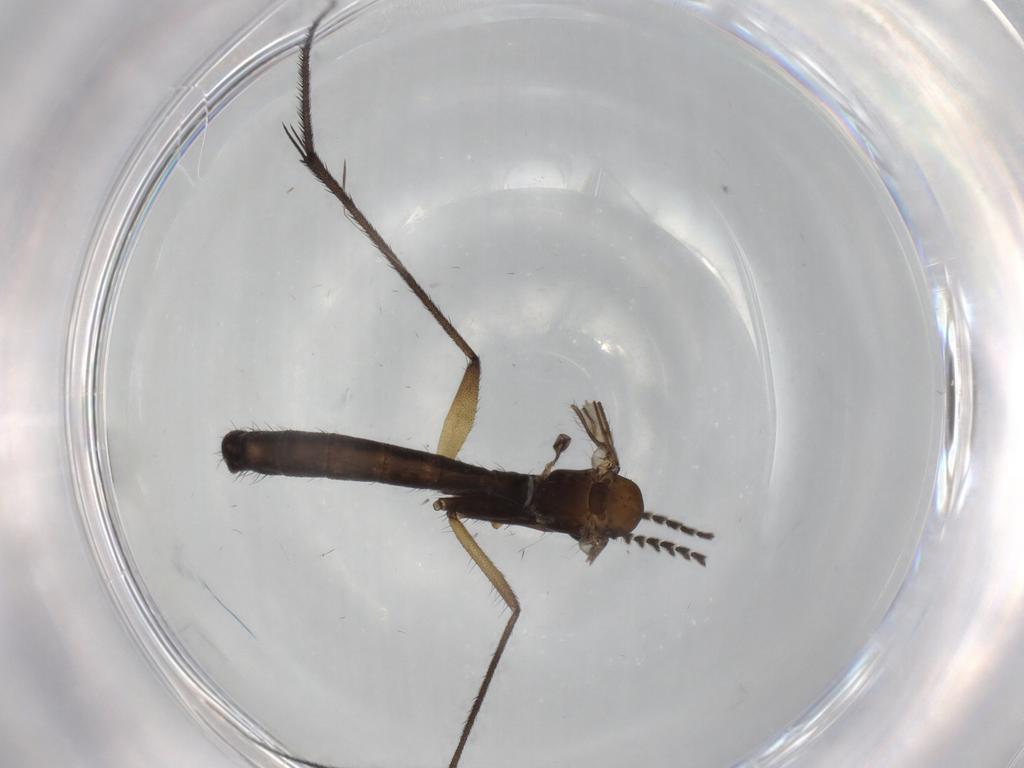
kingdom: Animalia
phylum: Arthropoda
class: Insecta
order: Diptera
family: Ditomyiidae
